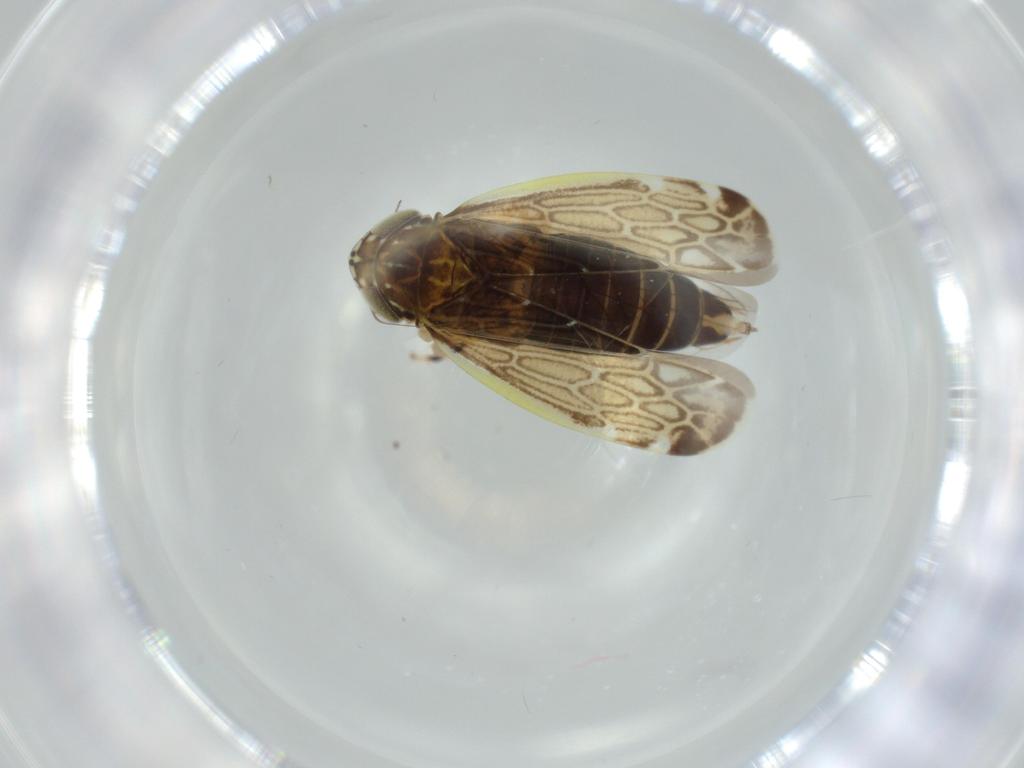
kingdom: Animalia
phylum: Arthropoda
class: Insecta
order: Hemiptera
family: Cicadellidae
